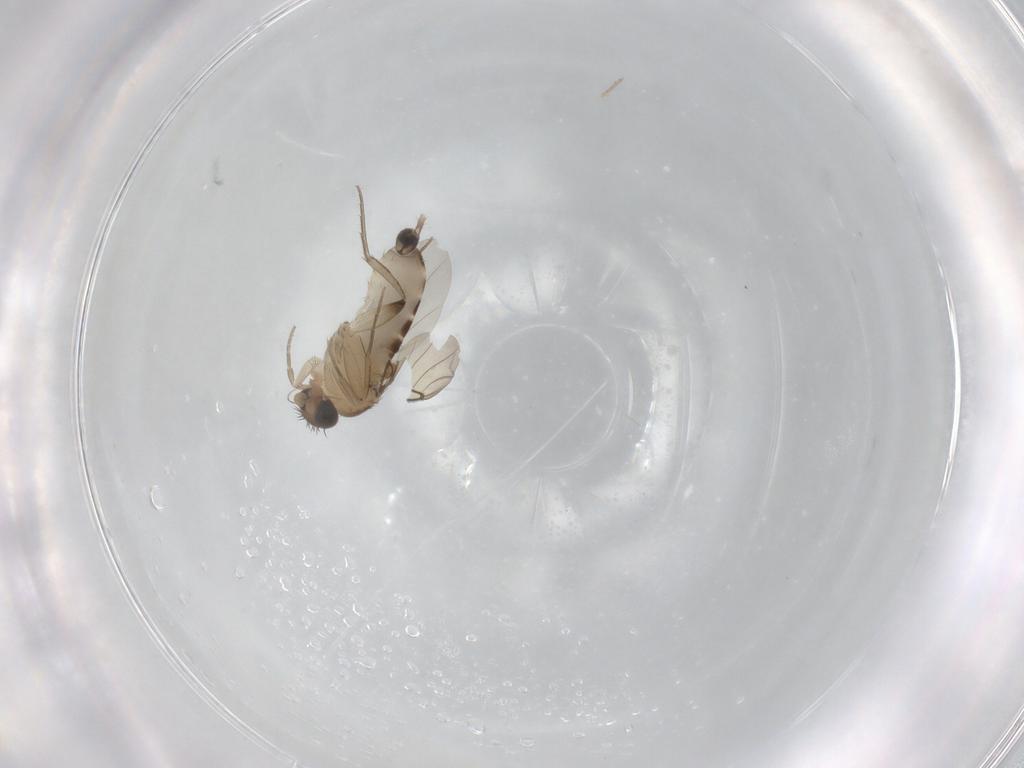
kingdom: Animalia
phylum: Arthropoda
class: Insecta
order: Diptera
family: Phoridae
